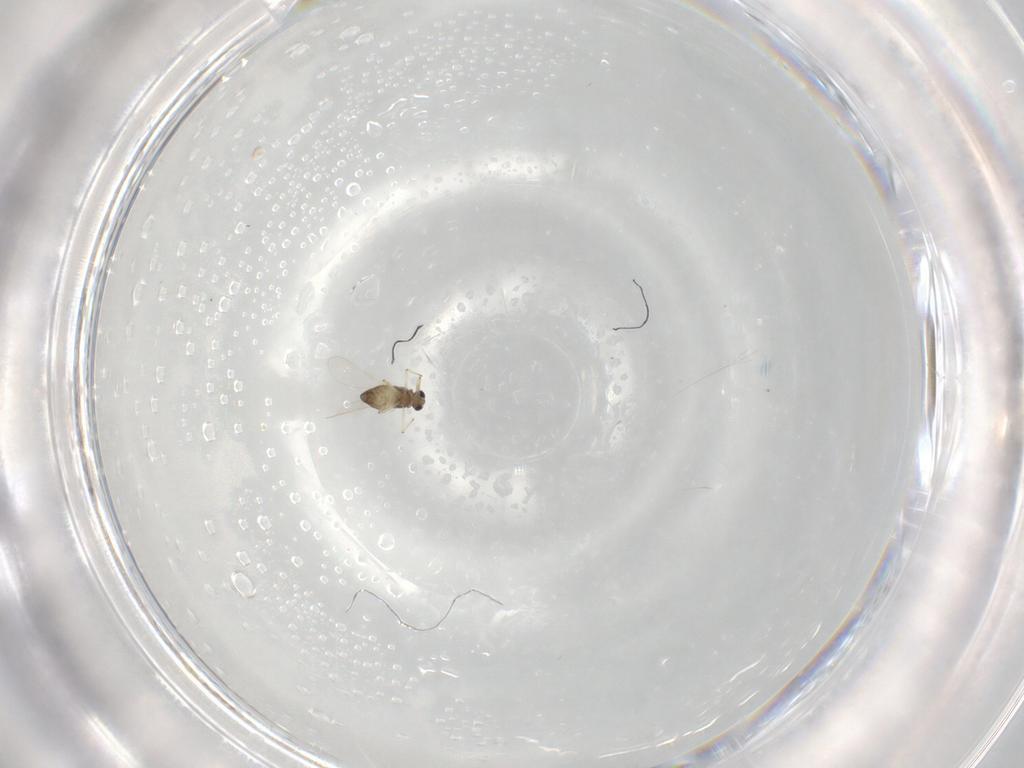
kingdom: Animalia
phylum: Arthropoda
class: Insecta
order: Diptera
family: Chironomidae
